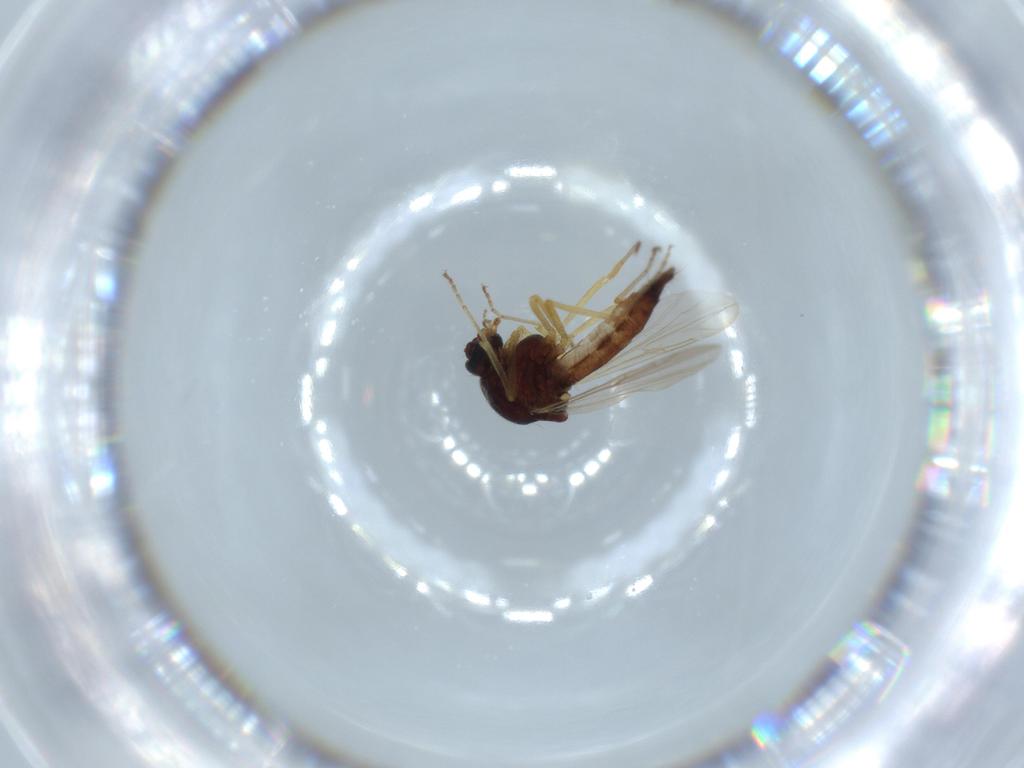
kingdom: Animalia
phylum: Arthropoda
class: Insecta
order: Diptera
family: Ceratopogonidae
